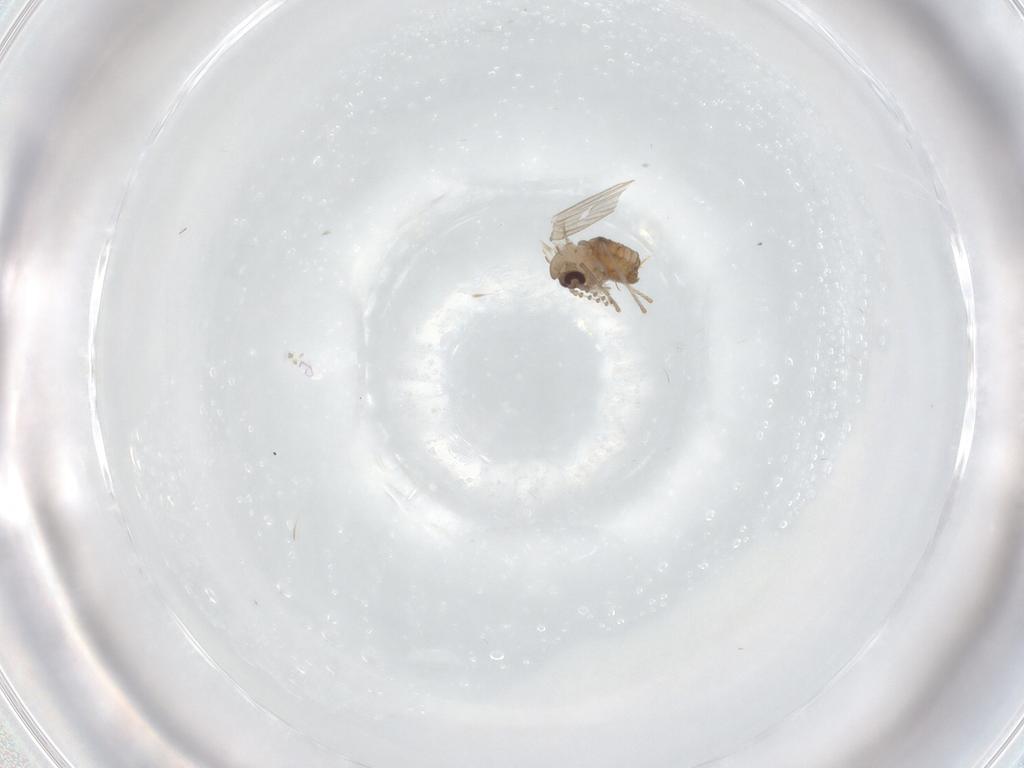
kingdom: Animalia
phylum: Arthropoda
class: Insecta
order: Diptera
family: Psychodidae
